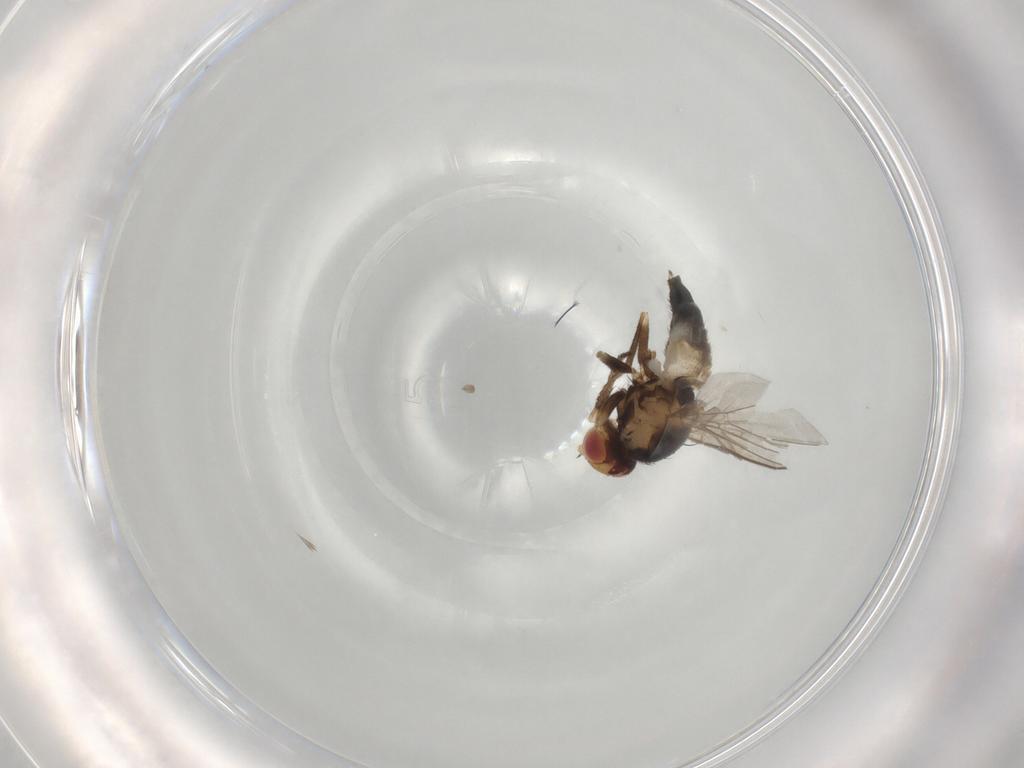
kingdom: Animalia
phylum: Arthropoda
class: Insecta
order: Diptera
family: Agromyzidae
